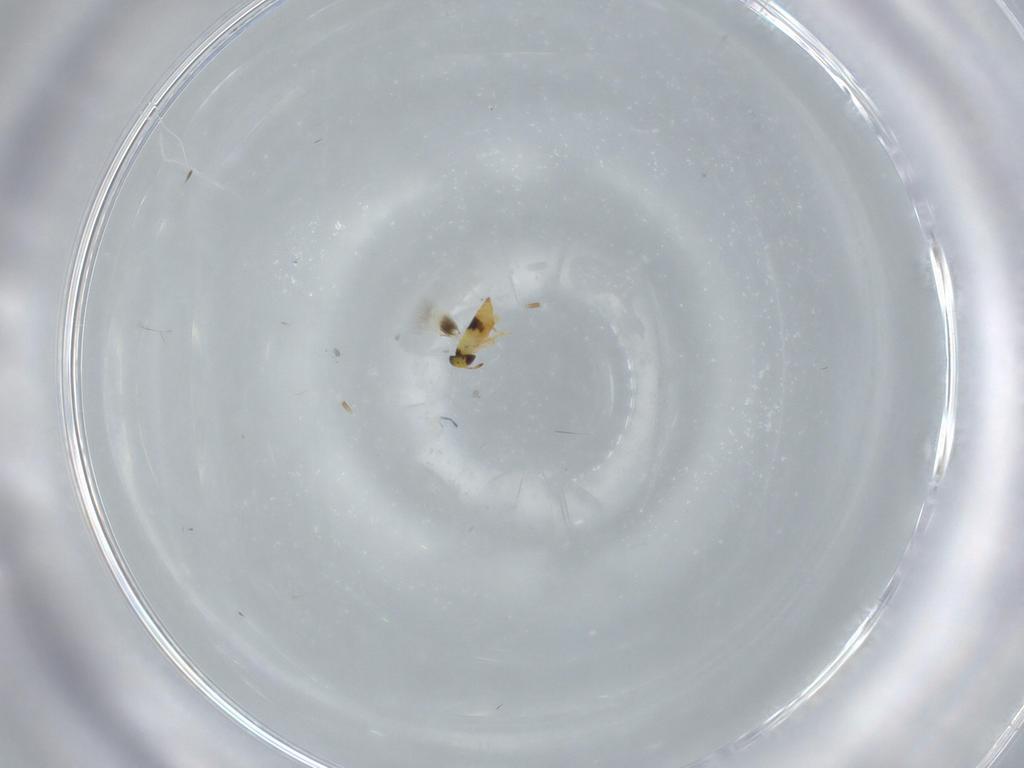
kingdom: Animalia
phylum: Arthropoda
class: Insecta
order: Hymenoptera
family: Signiphoridae
